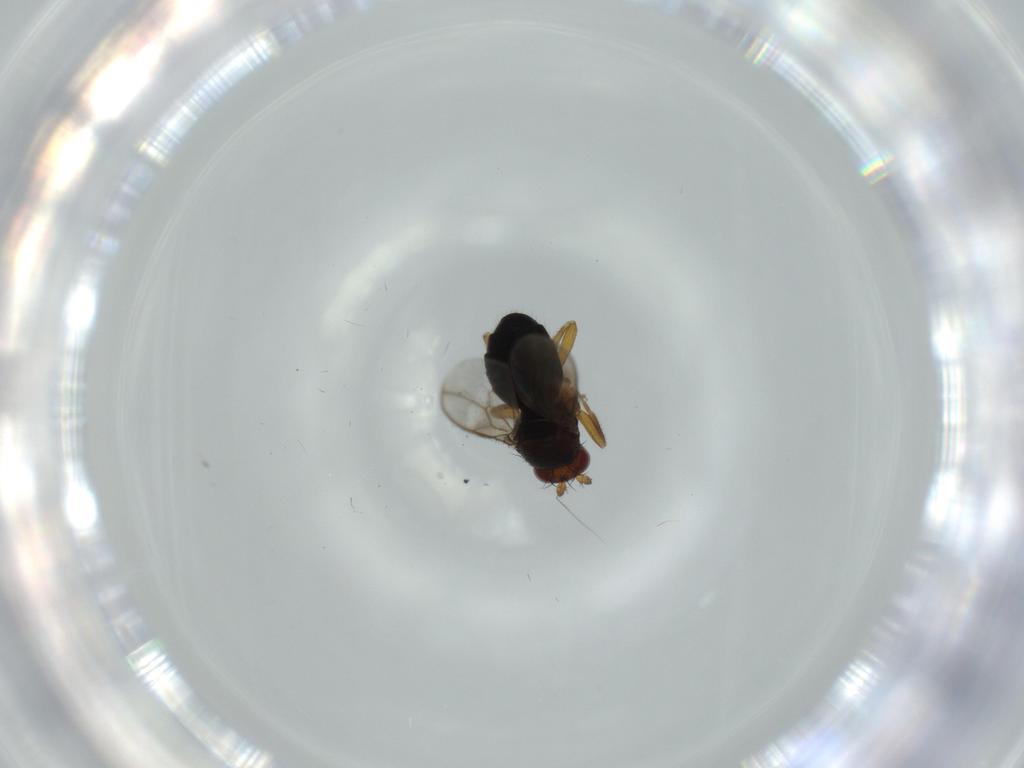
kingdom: Animalia
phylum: Arthropoda
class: Insecta
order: Diptera
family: Sphaeroceridae
